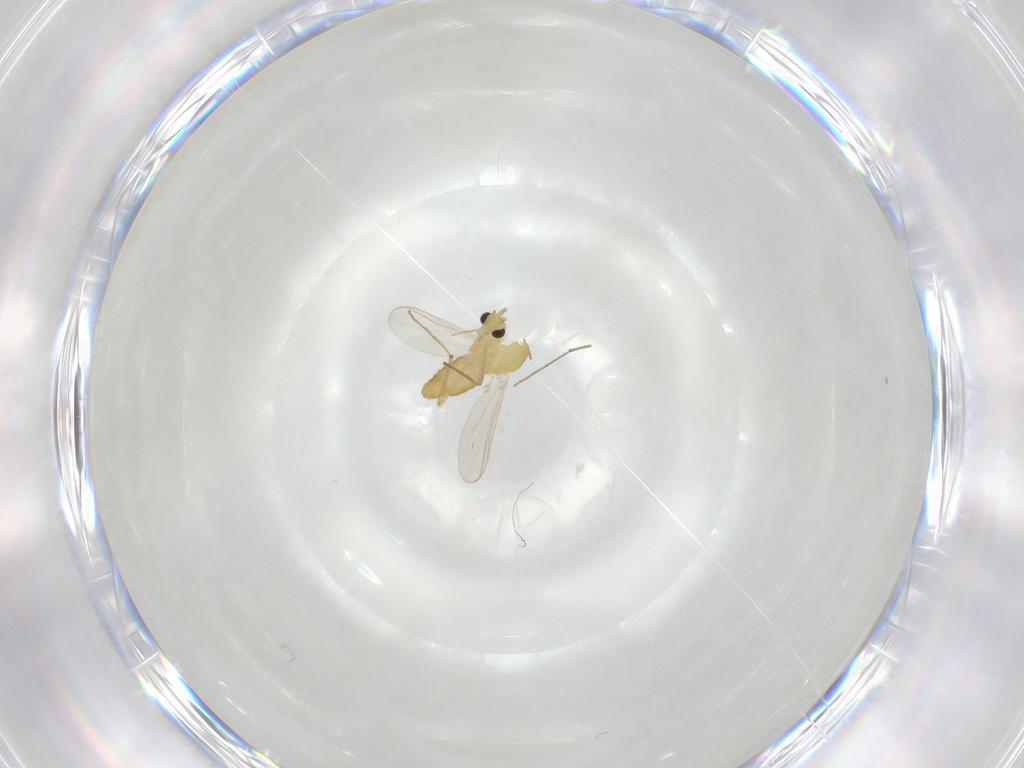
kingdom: Animalia
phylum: Arthropoda
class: Insecta
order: Diptera
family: Chironomidae
